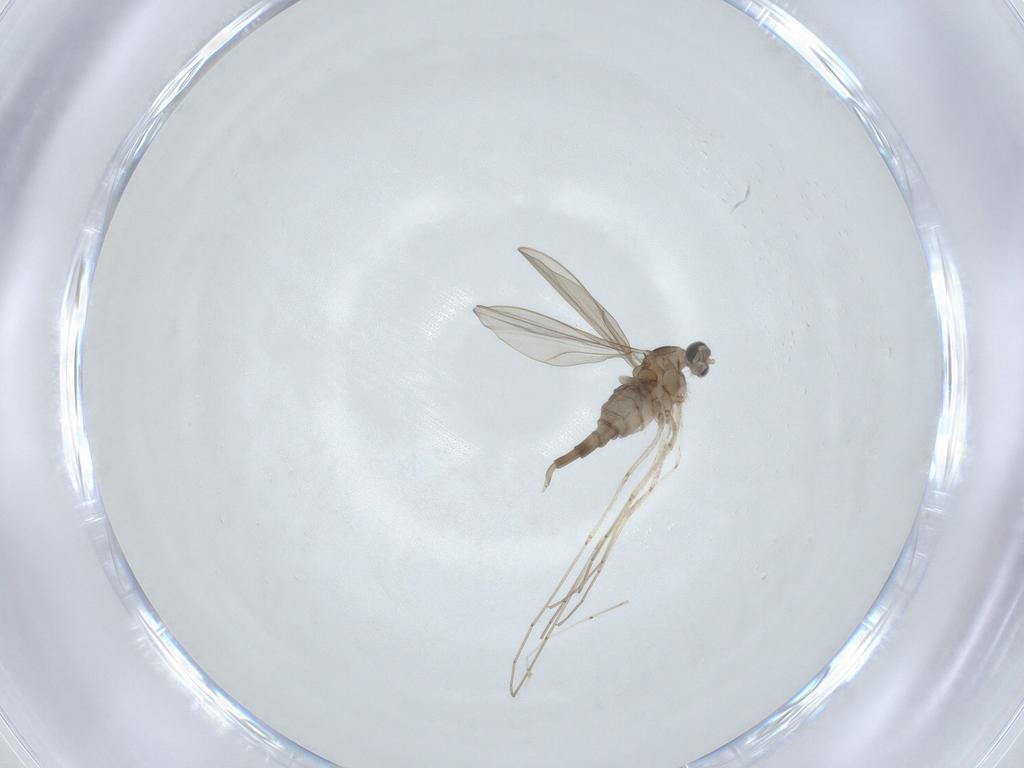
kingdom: Animalia
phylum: Arthropoda
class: Insecta
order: Diptera
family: Cecidomyiidae
